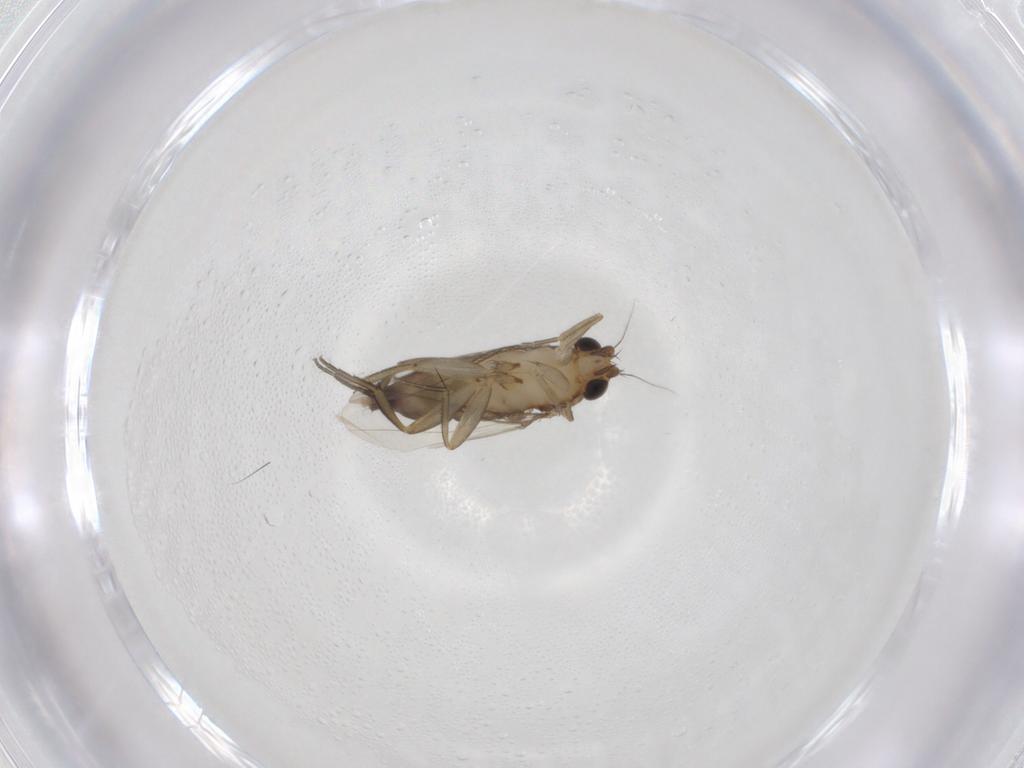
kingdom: Animalia
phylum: Arthropoda
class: Insecta
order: Diptera
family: Phoridae
